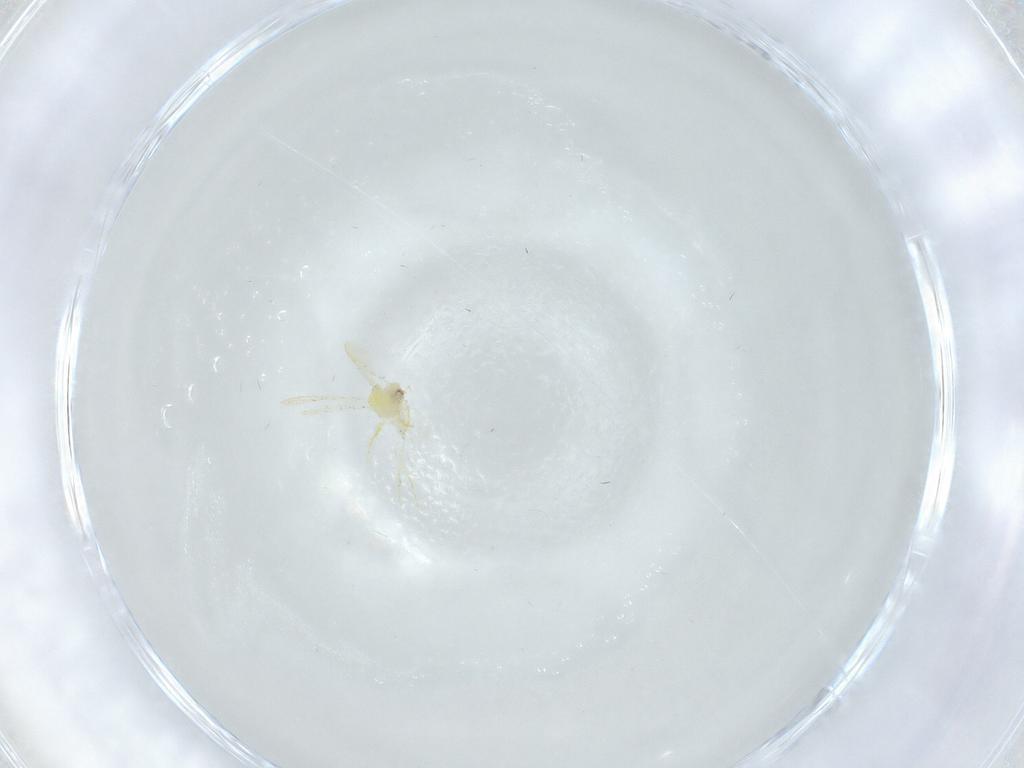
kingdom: Animalia
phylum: Arthropoda
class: Insecta
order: Hemiptera
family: Aleyrodidae
